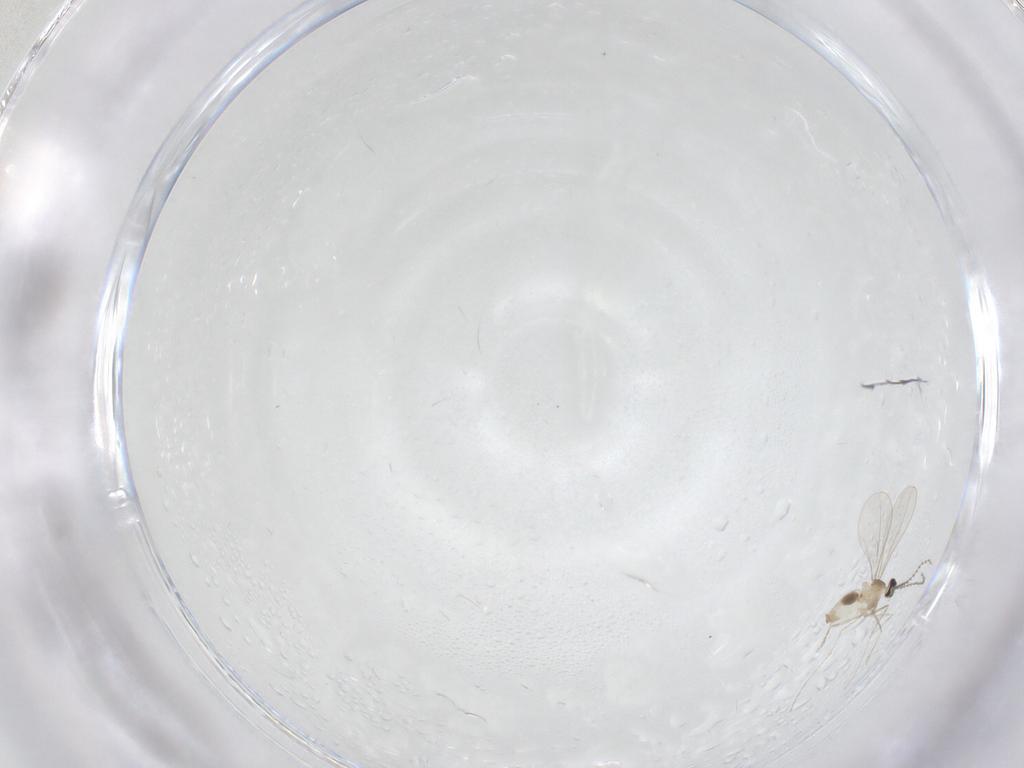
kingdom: Animalia
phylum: Arthropoda
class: Insecta
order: Diptera
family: Cecidomyiidae
